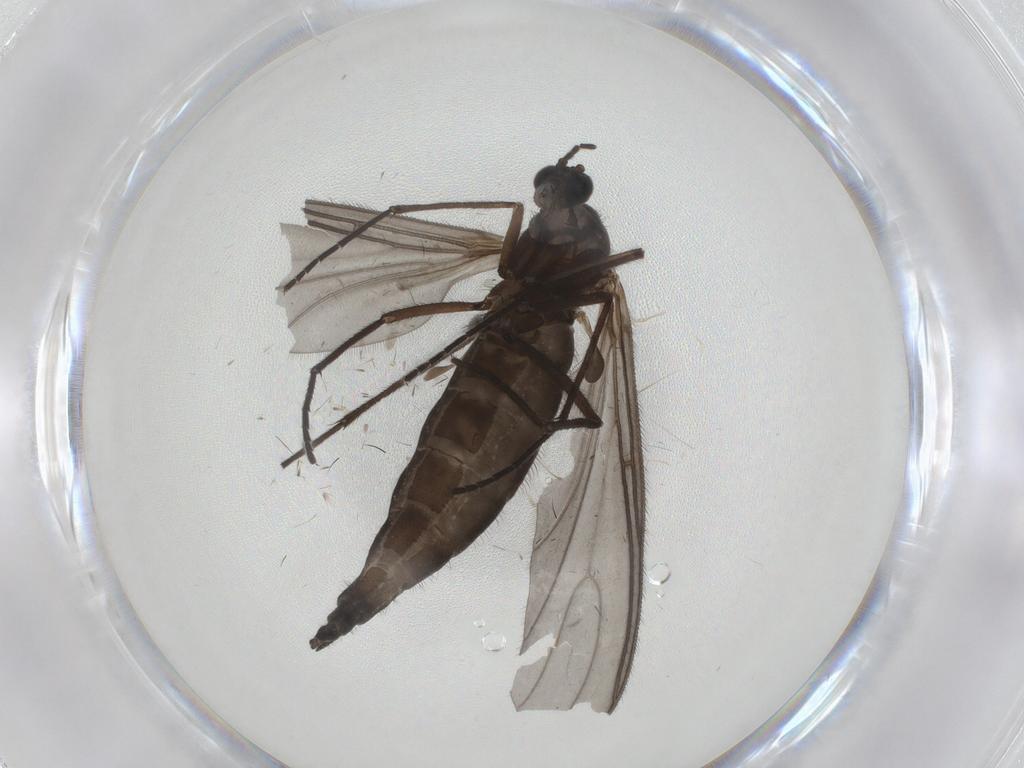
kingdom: Animalia
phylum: Arthropoda
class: Insecta
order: Diptera
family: Sciaridae
